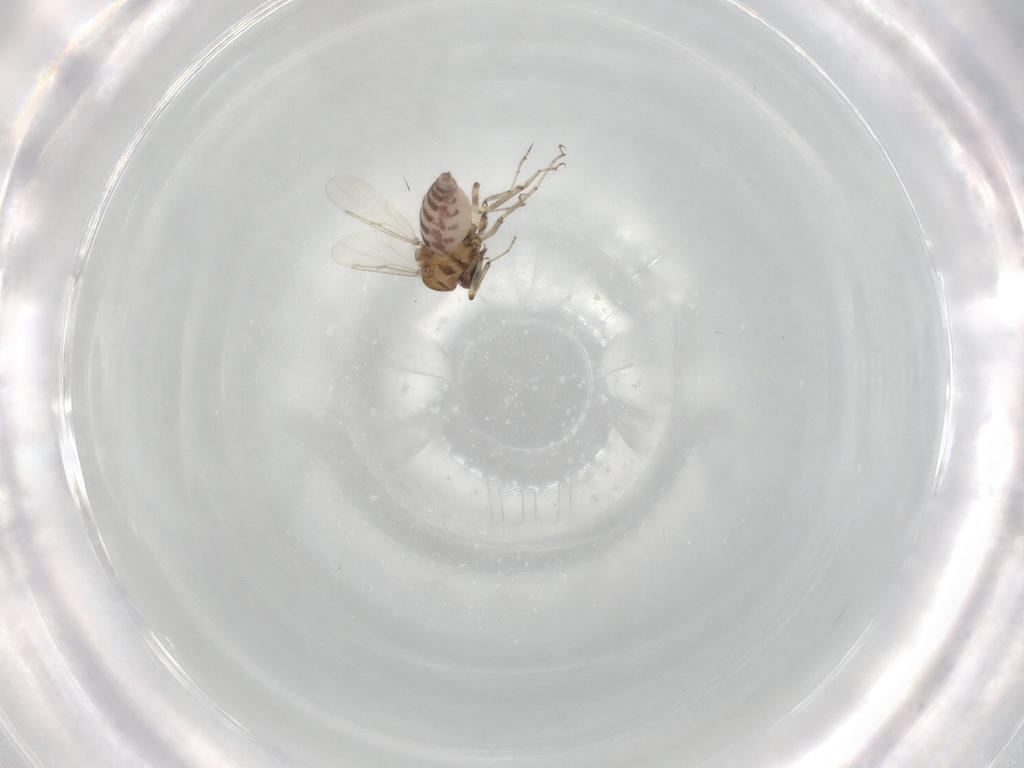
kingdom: Animalia
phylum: Arthropoda
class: Insecta
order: Diptera
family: Ceratopogonidae
